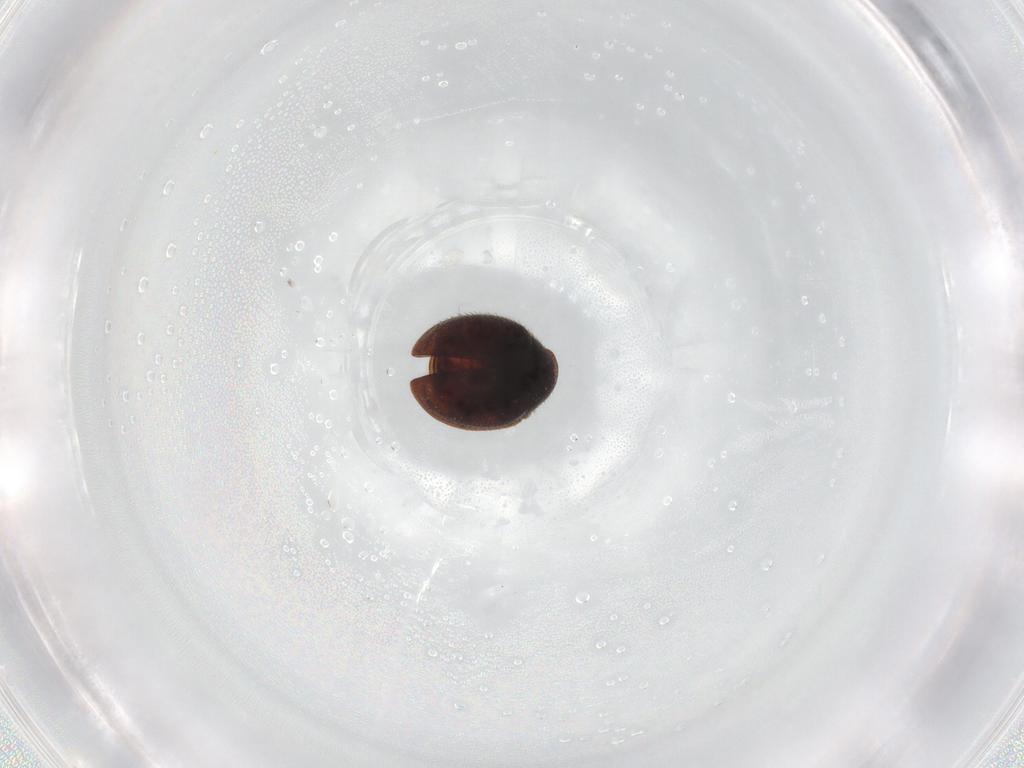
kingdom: Animalia
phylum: Arthropoda
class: Insecta
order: Coleoptera
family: Coccinellidae
